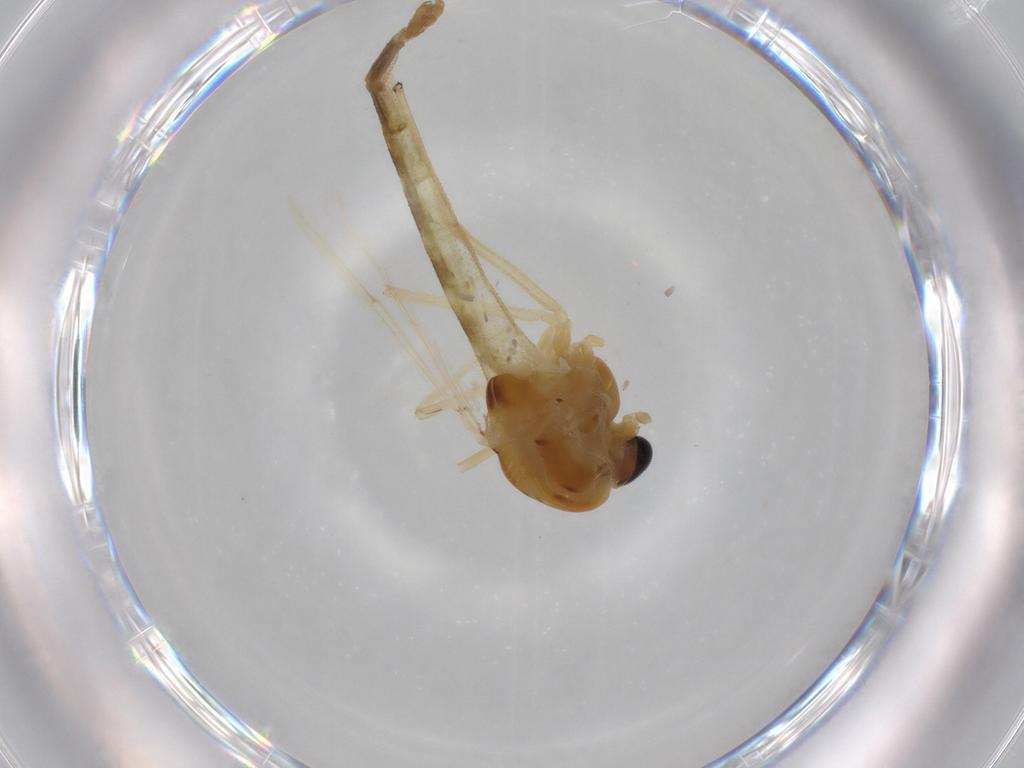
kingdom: Animalia
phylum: Arthropoda
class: Insecta
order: Diptera
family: Chironomidae
